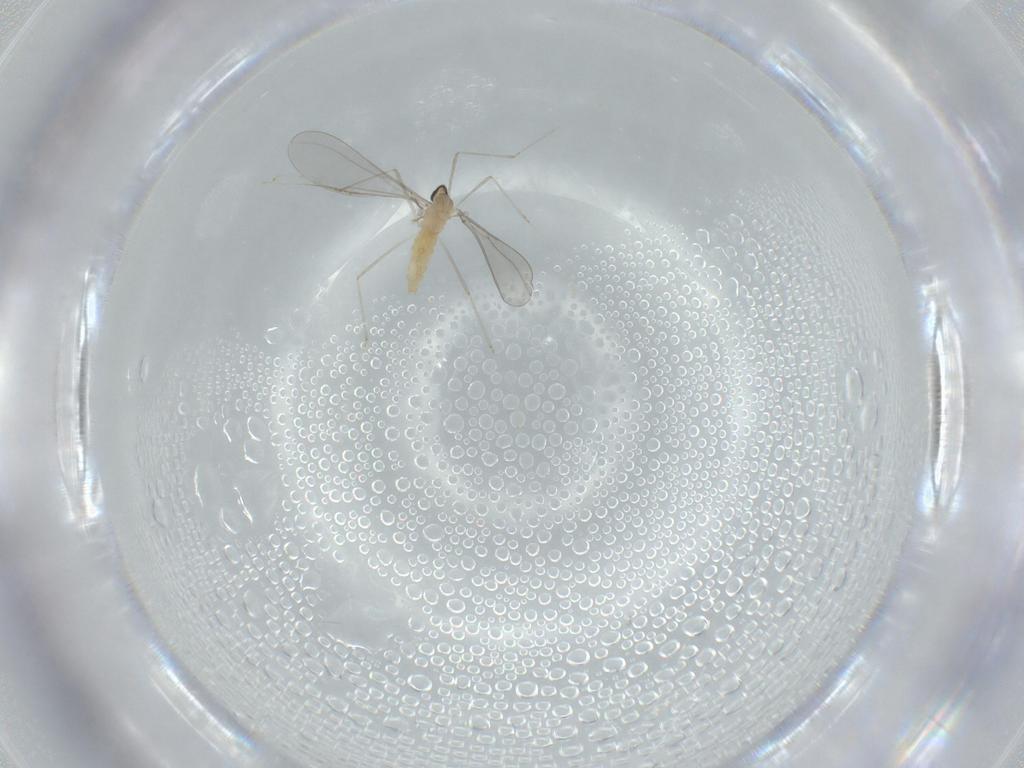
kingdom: Animalia
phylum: Arthropoda
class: Insecta
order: Diptera
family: Cecidomyiidae
